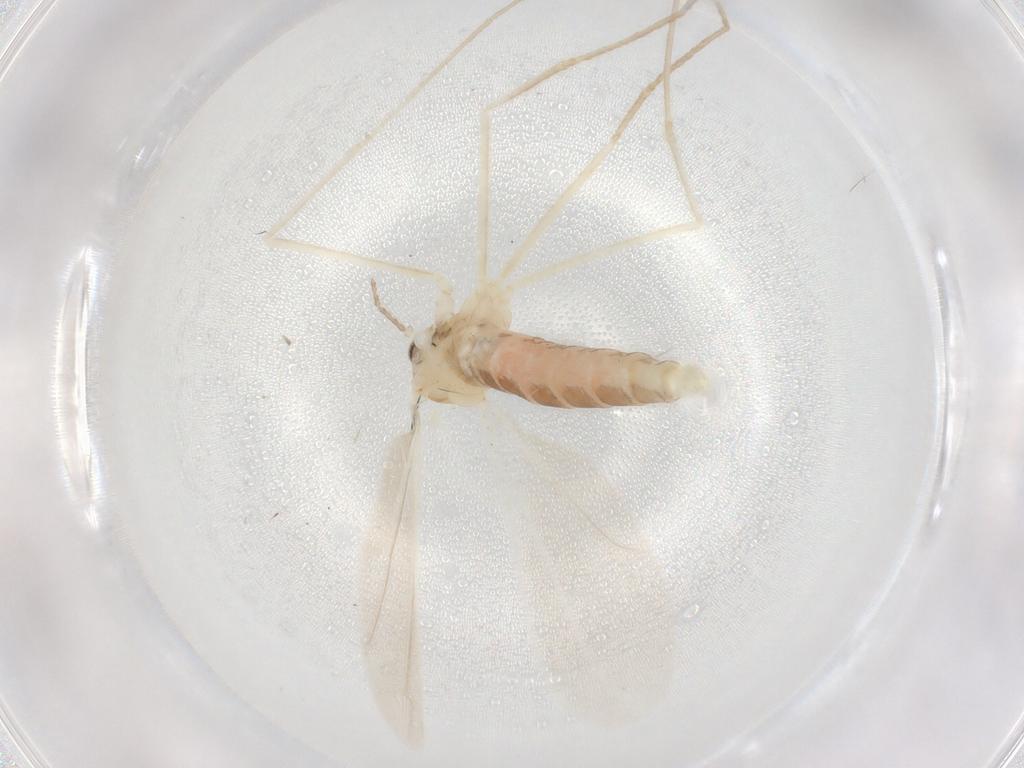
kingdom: Animalia
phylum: Arthropoda
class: Insecta
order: Diptera
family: Cecidomyiidae
